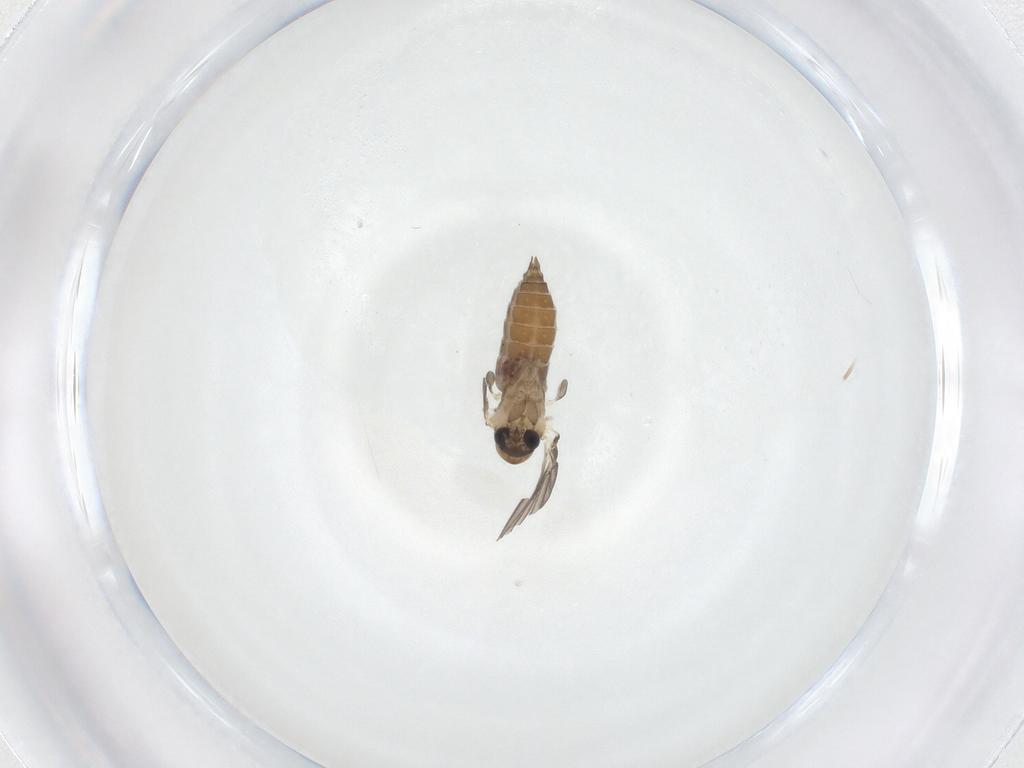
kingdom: Animalia
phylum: Arthropoda
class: Insecta
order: Diptera
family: Psychodidae
